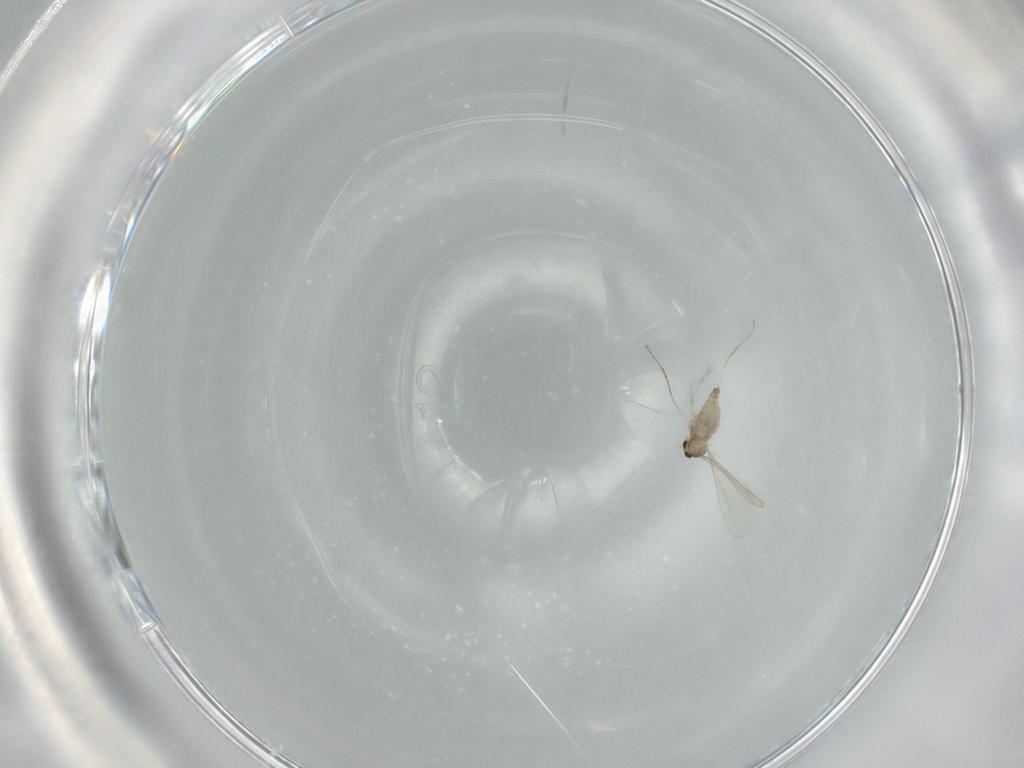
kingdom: Animalia
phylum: Arthropoda
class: Insecta
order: Diptera
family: Cecidomyiidae
